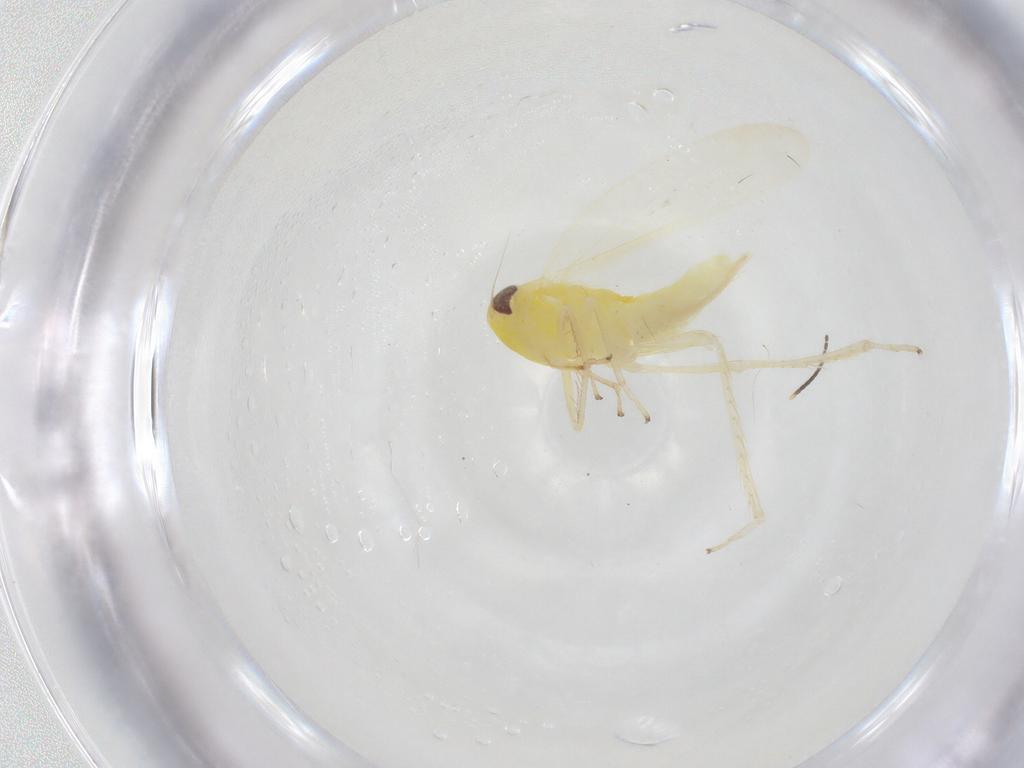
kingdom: Animalia
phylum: Arthropoda
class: Insecta
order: Hemiptera
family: Cicadellidae
